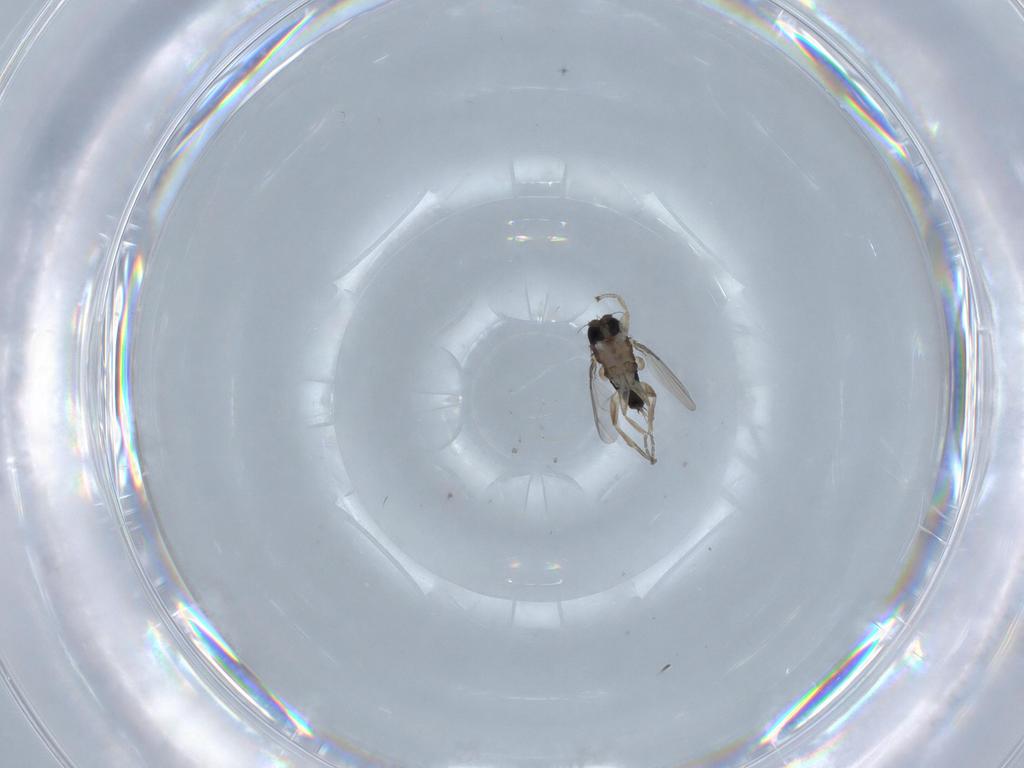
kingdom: Animalia
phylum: Arthropoda
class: Insecta
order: Diptera
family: Phoridae
